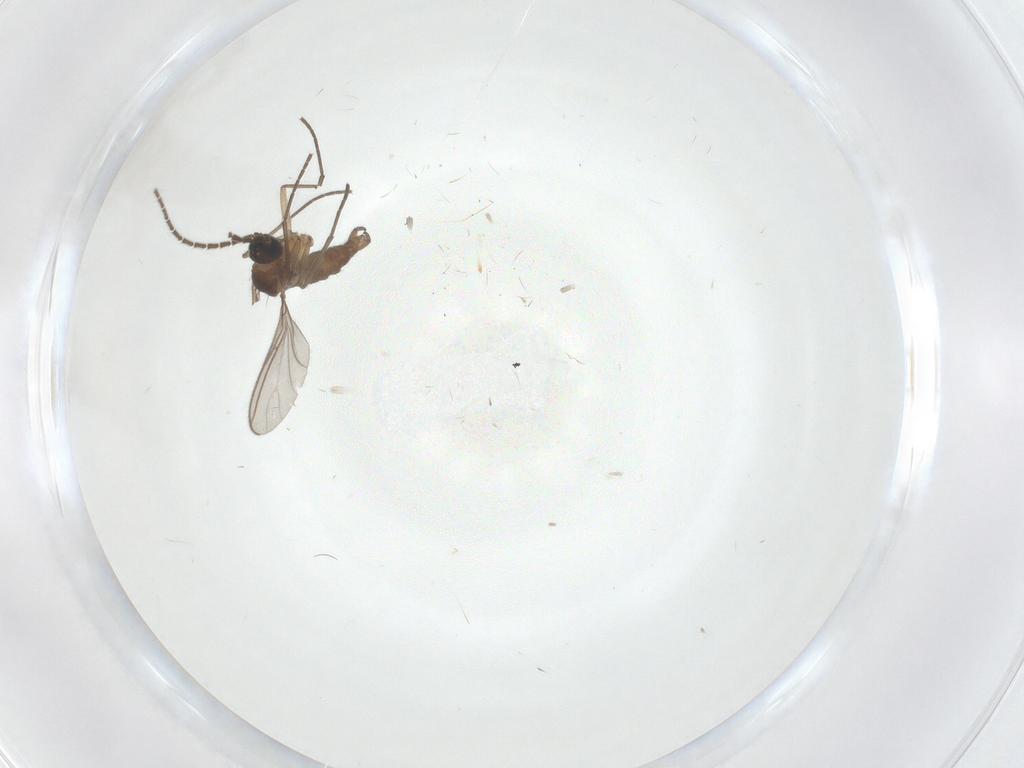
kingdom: Animalia
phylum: Arthropoda
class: Insecta
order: Diptera
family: Sciaridae
